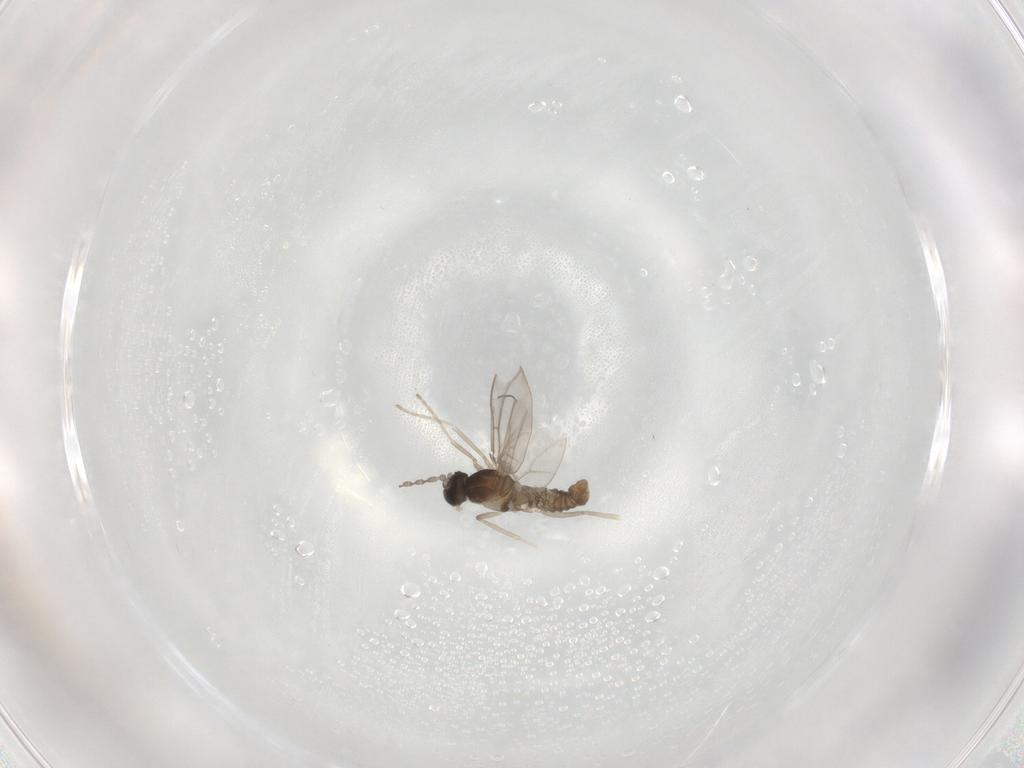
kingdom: Animalia
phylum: Arthropoda
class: Insecta
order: Diptera
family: Cecidomyiidae
